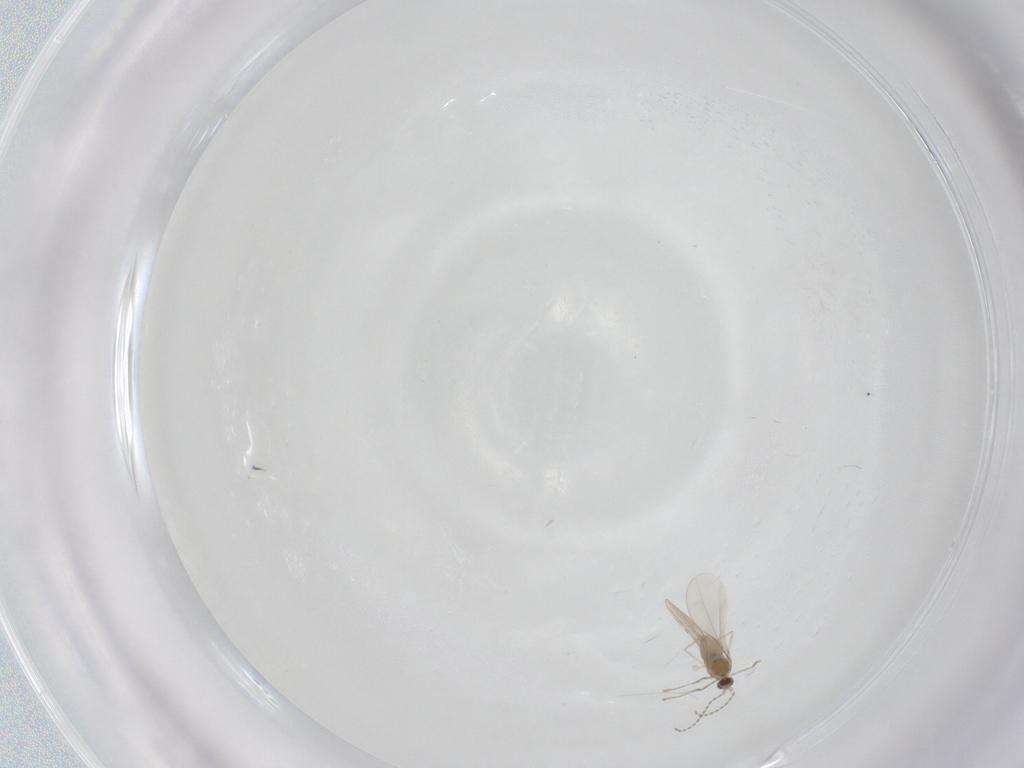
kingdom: Animalia
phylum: Arthropoda
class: Insecta
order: Diptera
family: Cecidomyiidae
